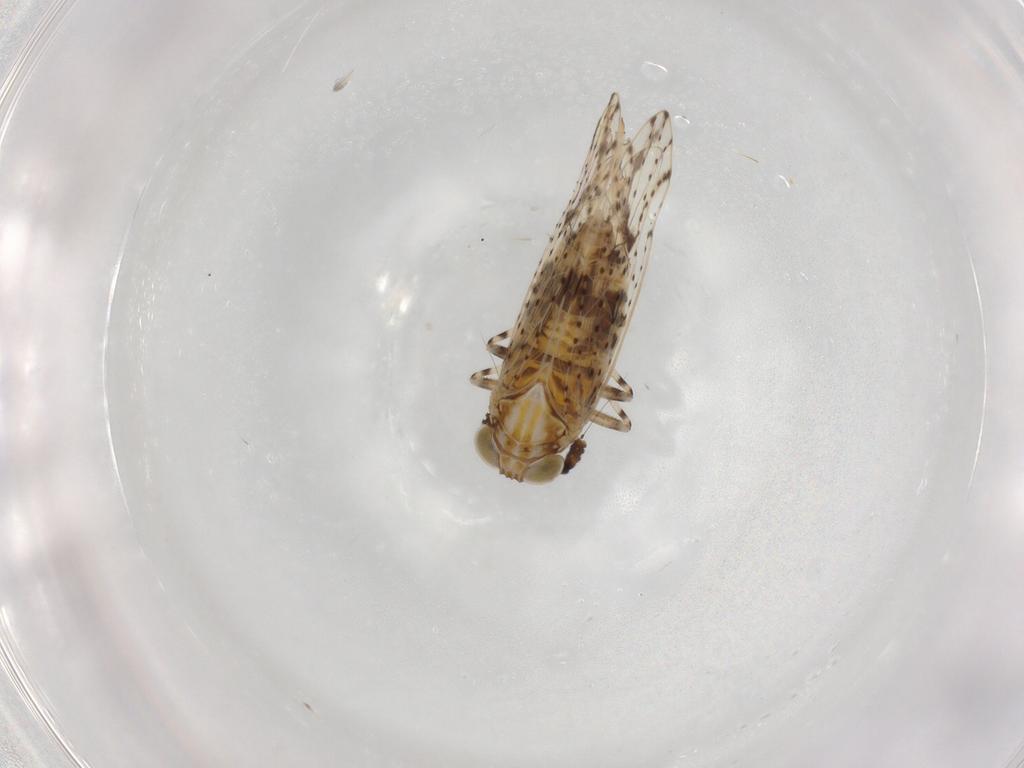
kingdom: Animalia
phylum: Arthropoda
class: Insecta
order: Hemiptera
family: Delphacidae
